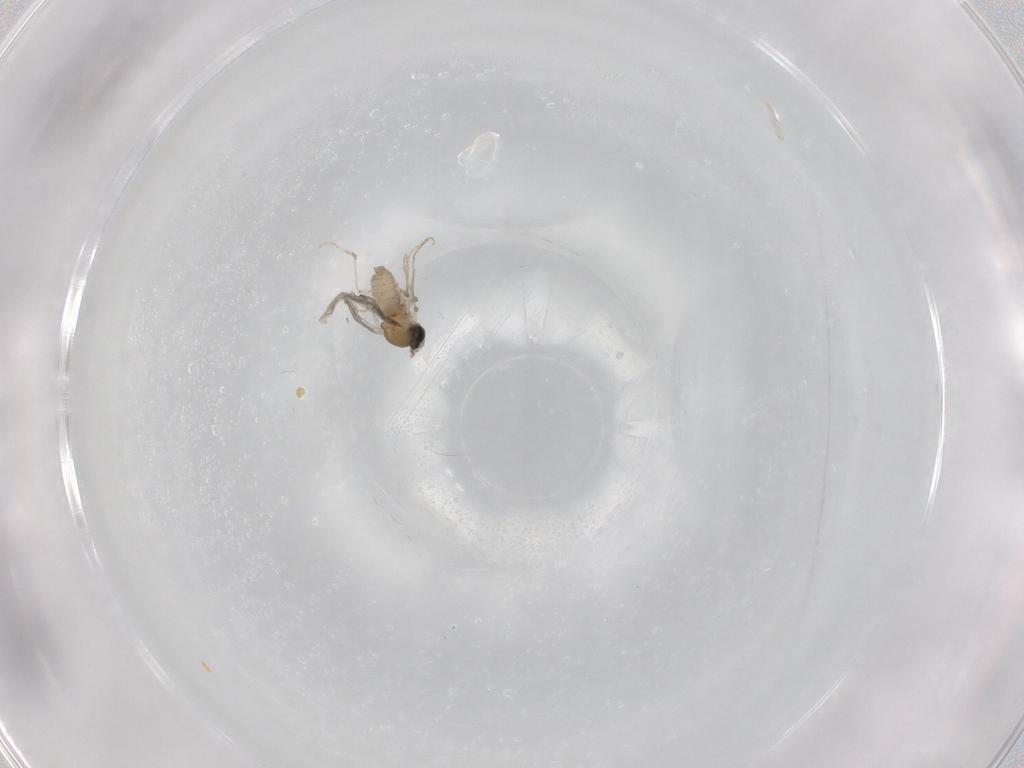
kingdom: Animalia
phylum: Arthropoda
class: Insecta
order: Diptera
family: Cecidomyiidae
